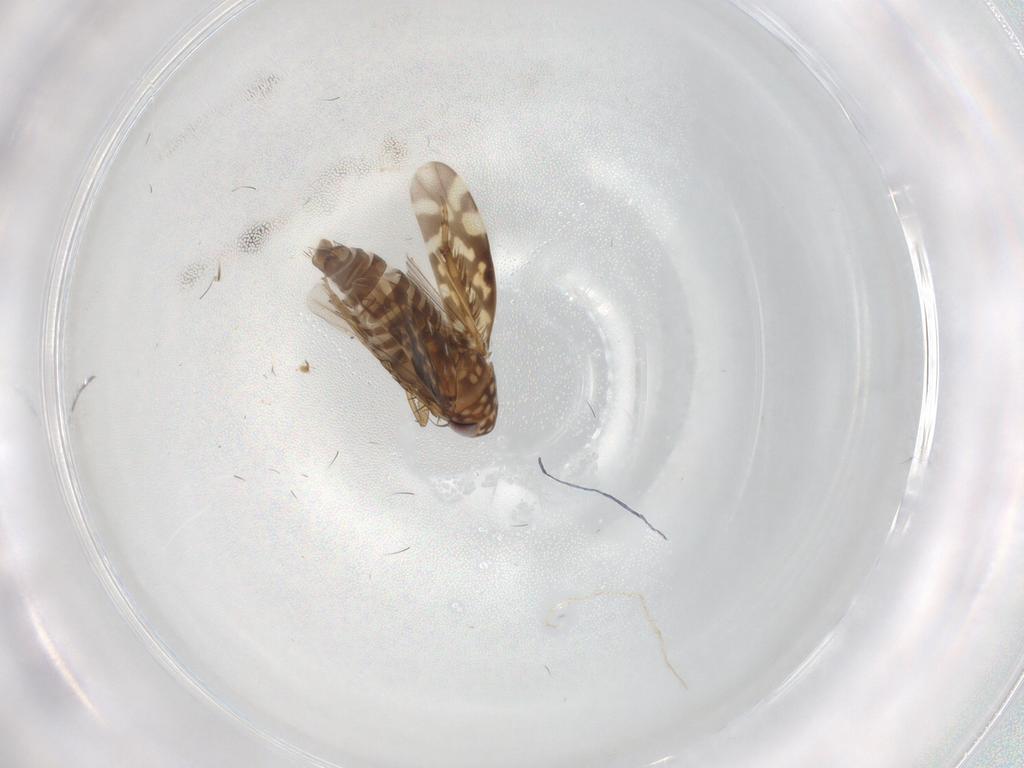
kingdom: Animalia
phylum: Arthropoda
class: Insecta
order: Hemiptera
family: Cicadellidae
